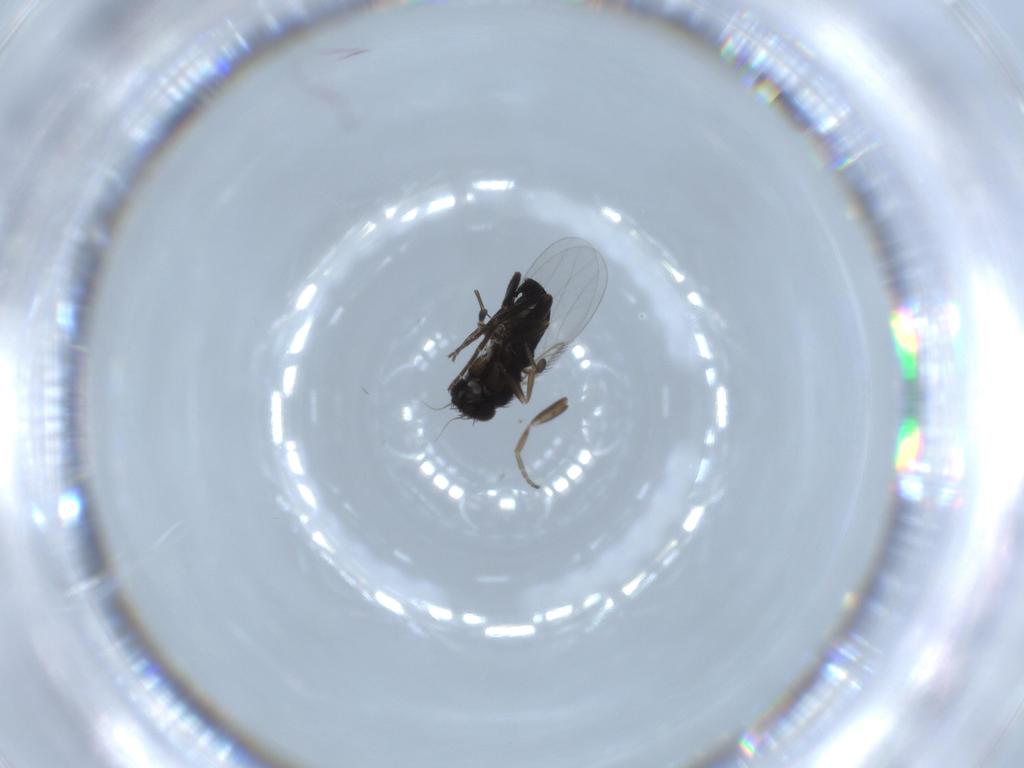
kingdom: Animalia
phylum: Arthropoda
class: Insecta
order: Diptera
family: Phoridae
